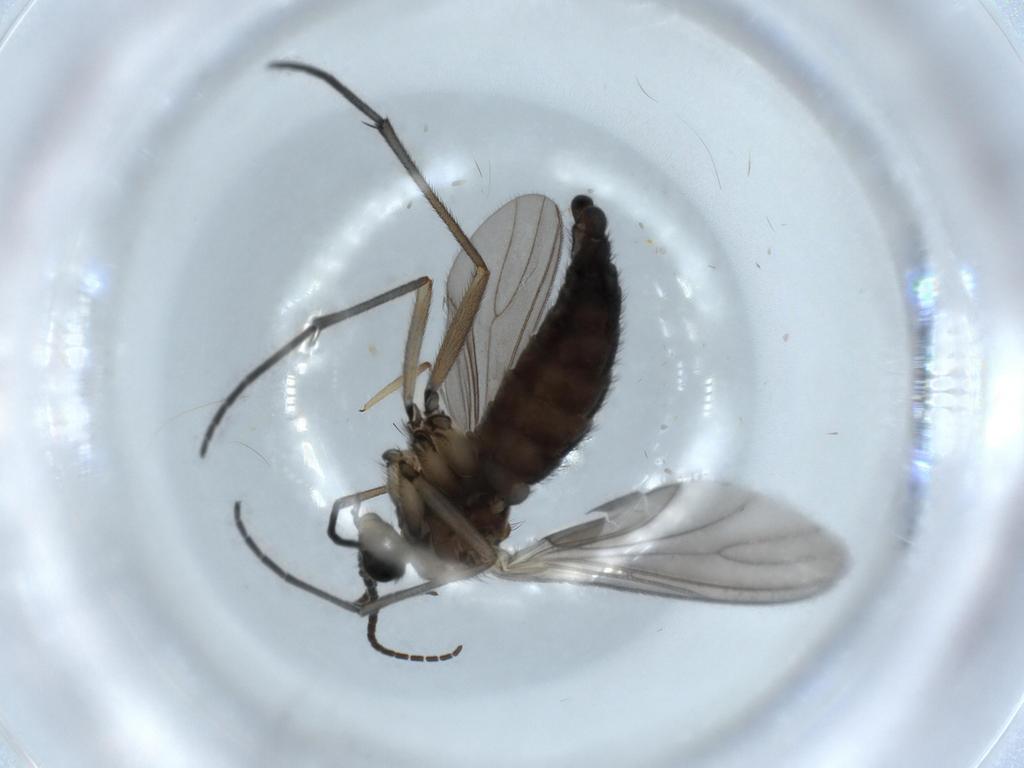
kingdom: Animalia
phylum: Arthropoda
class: Insecta
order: Diptera
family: Sciaridae
